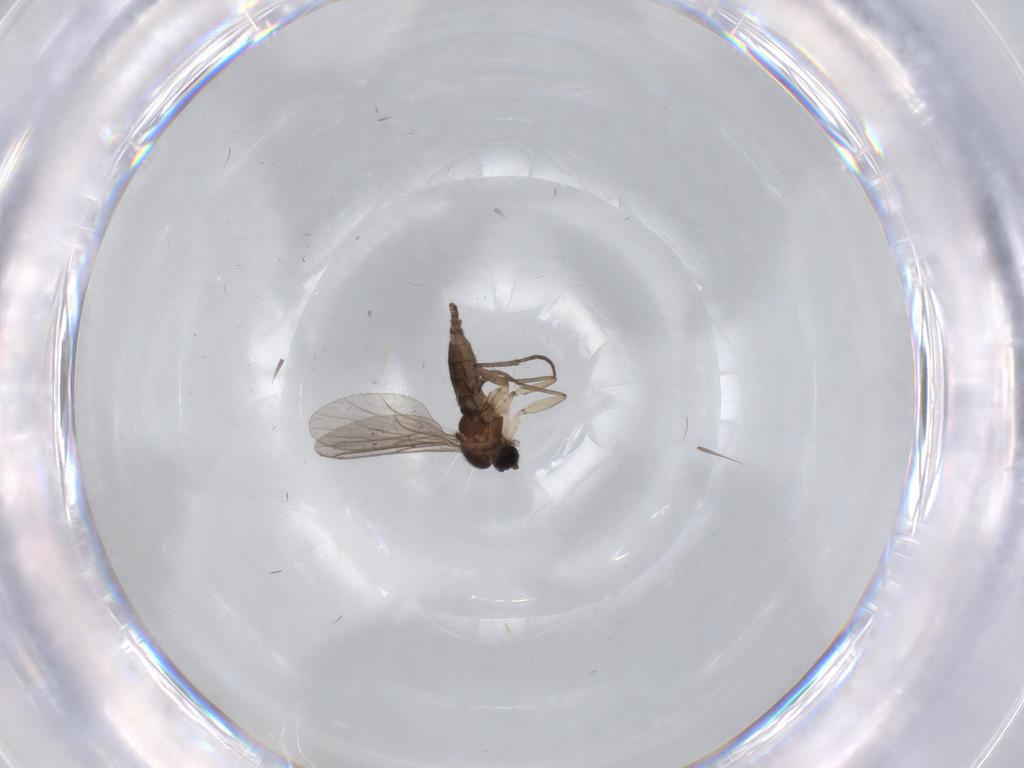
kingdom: Animalia
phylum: Arthropoda
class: Insecta
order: Diptera
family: Sciaridae
